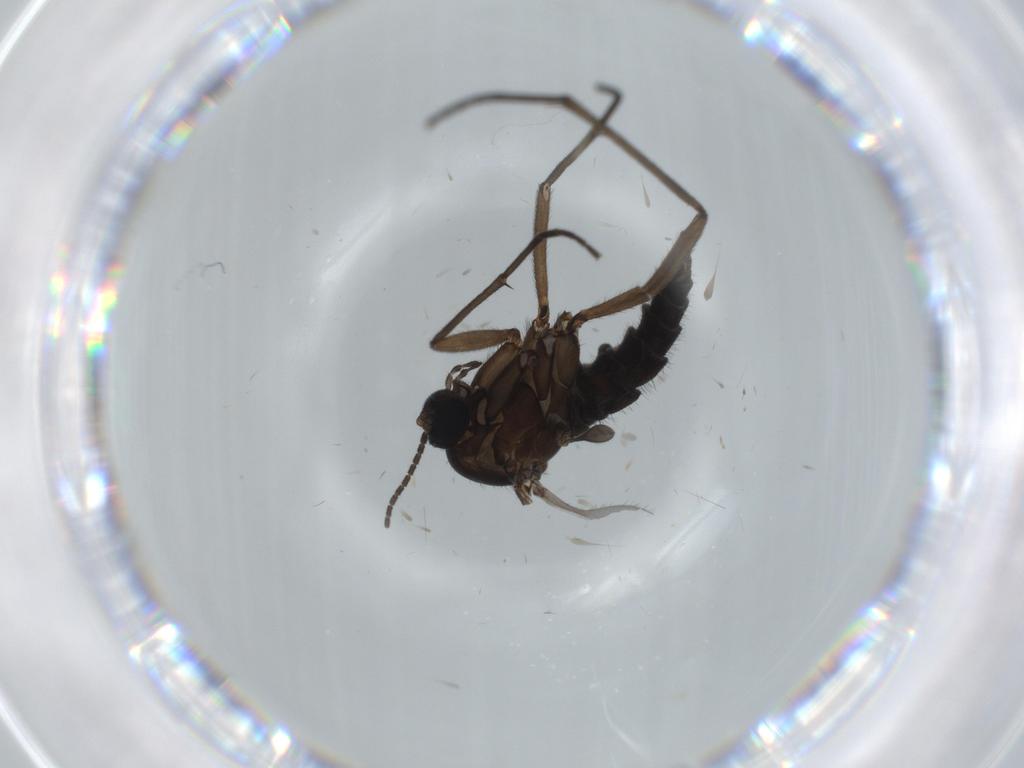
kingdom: Animalia
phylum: Arthropoda
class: Insecta
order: Diptera
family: Sciaridae
